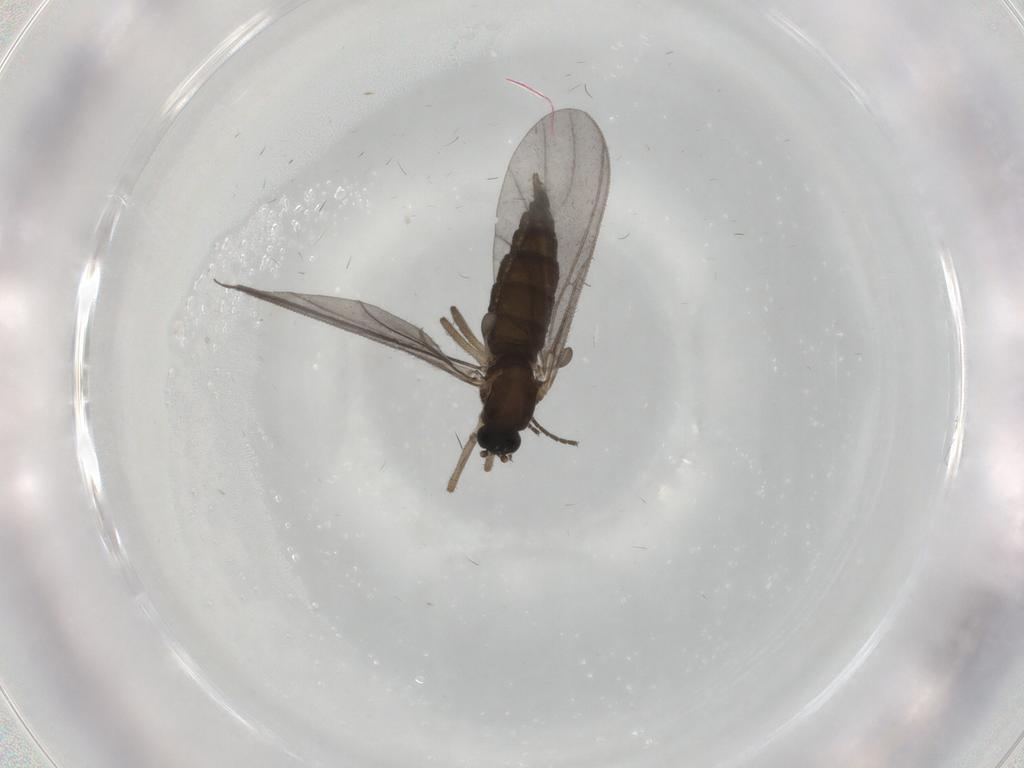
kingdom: Animalia
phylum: Arthropoda
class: Insecta
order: Diptera
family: Sciaridae
